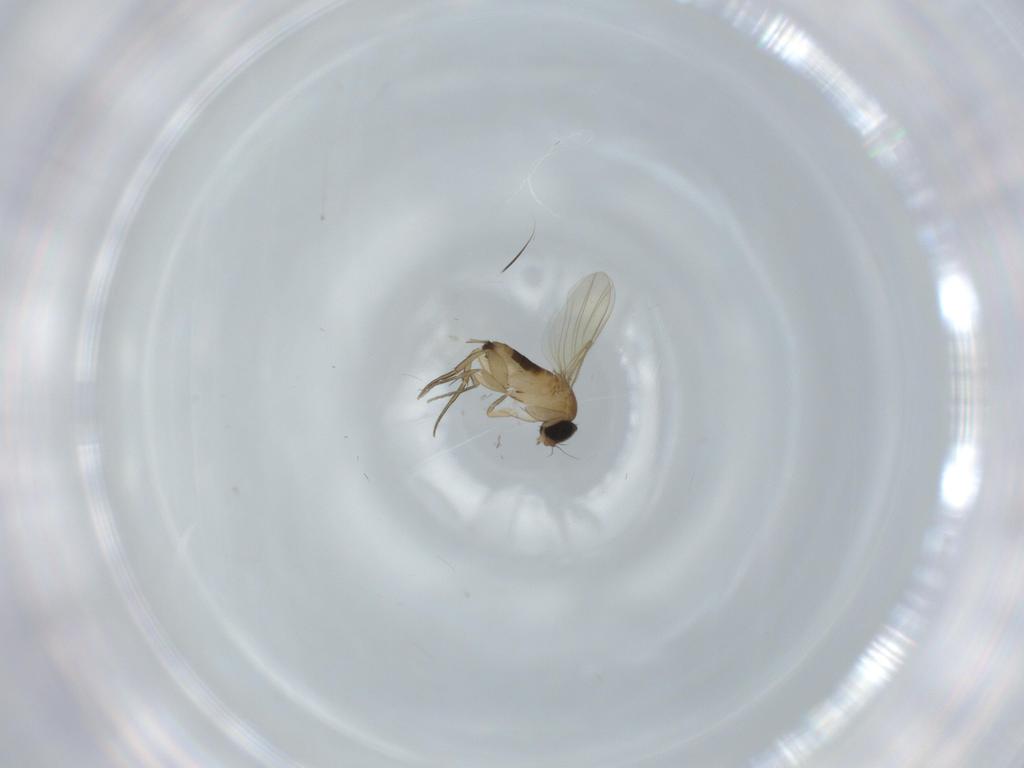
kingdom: Animalia
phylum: Arthropoda
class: Insecta
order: Diptera
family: Phoridae
